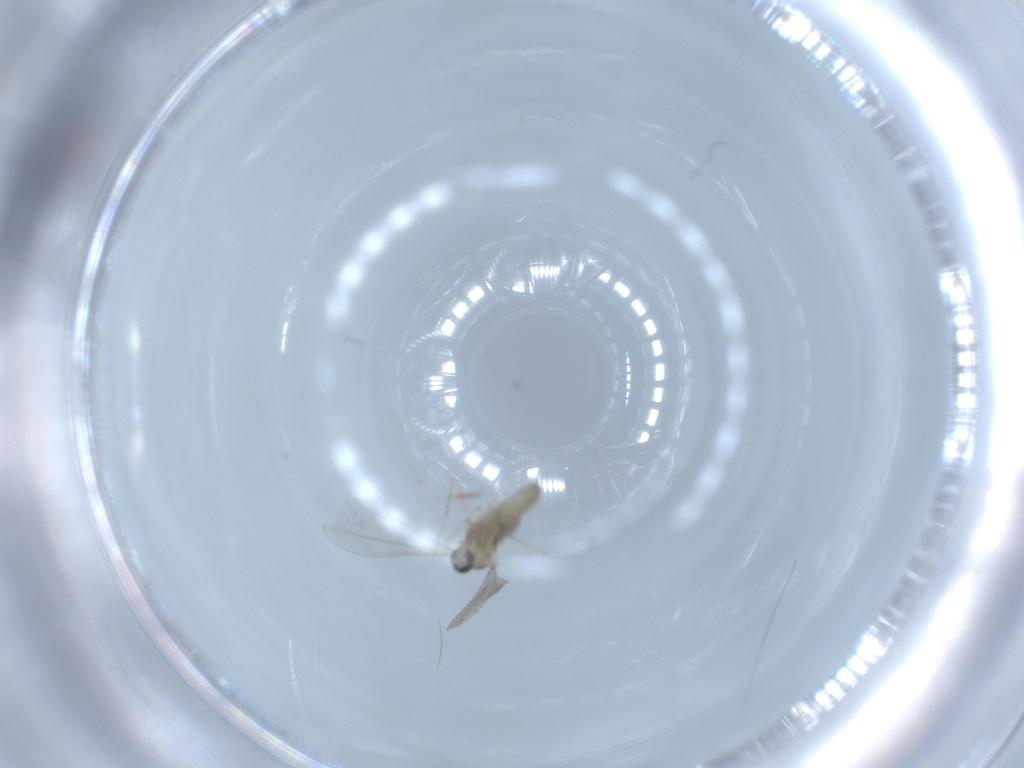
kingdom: Animalia
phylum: Arthropoda
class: Insecta
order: Diptera
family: Cecidomyiidae
